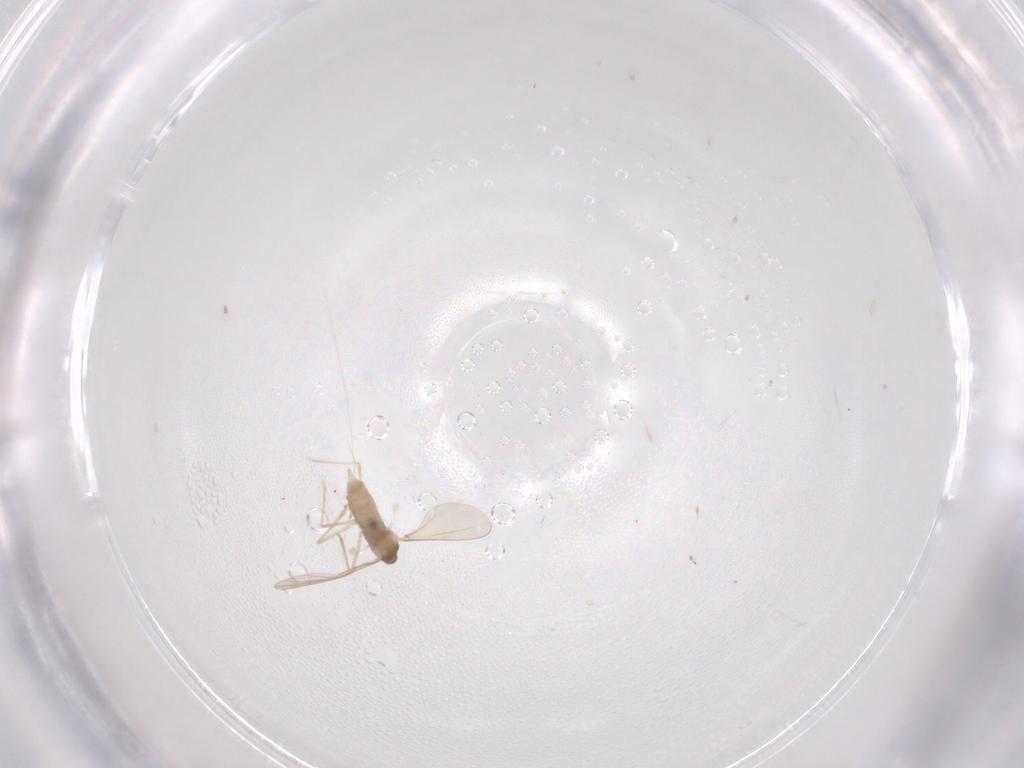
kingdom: Animalia
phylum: Arthropoda
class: Insecta
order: Diptera
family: Cecidomyiidae
